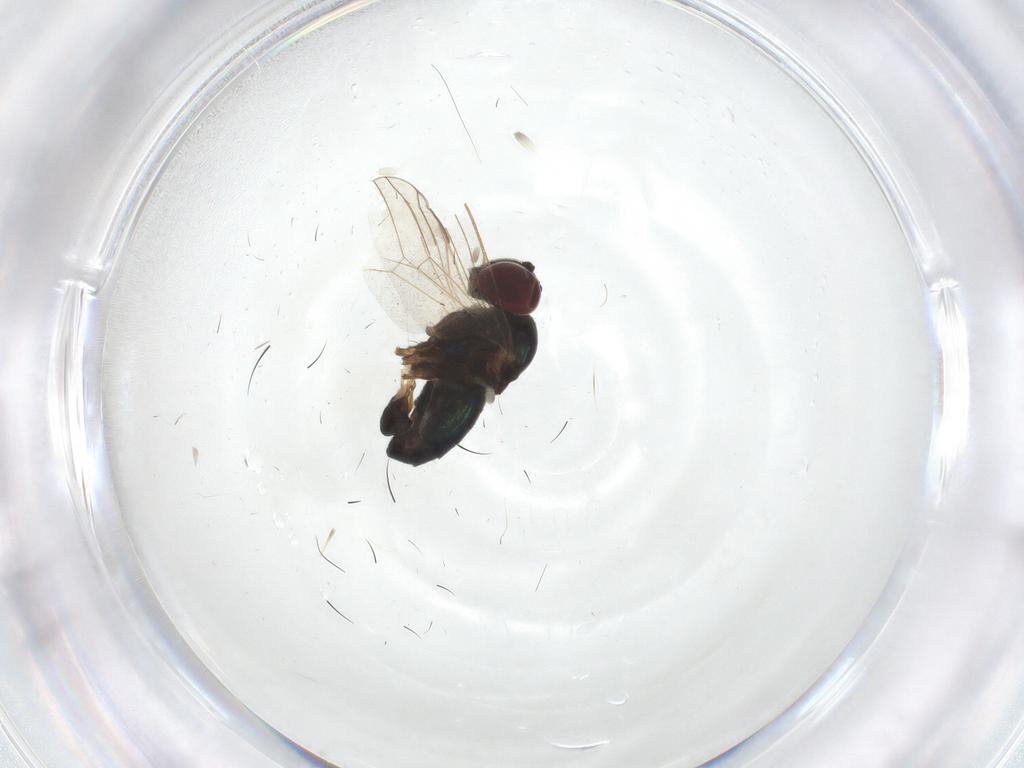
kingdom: Animalia
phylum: Arthropoda
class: Insecta
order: Diptera
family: Dolichopodidae
